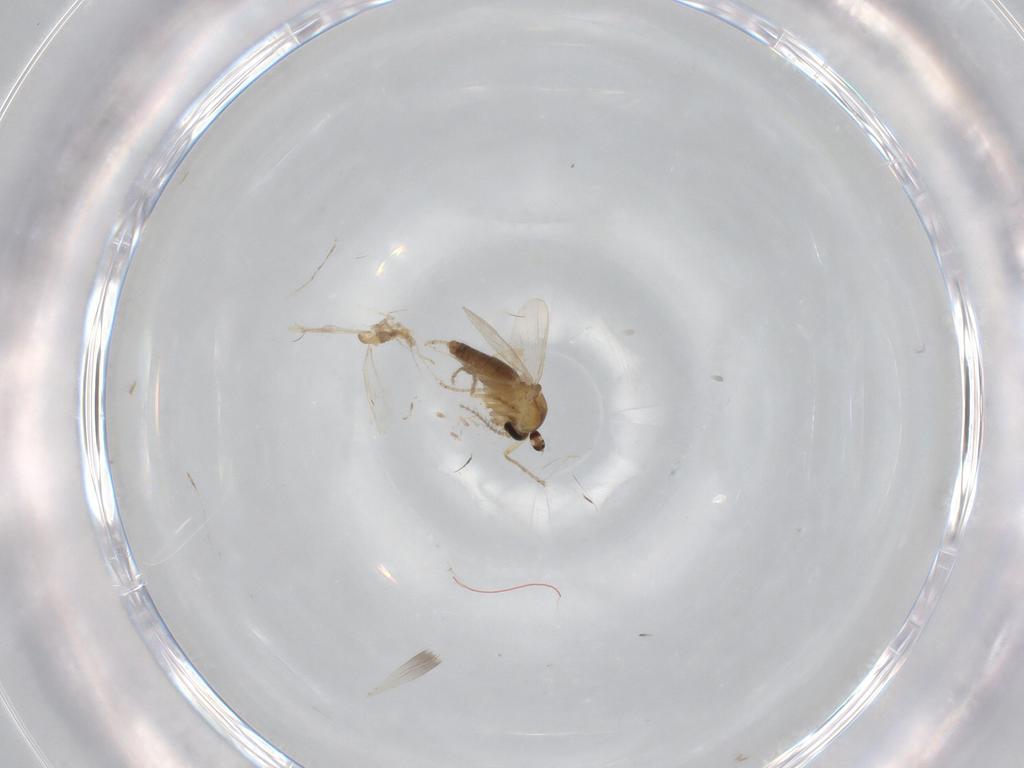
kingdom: Animalia
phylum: Arthropoda
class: Insecta
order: Diptera
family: Ceratopogonidae
